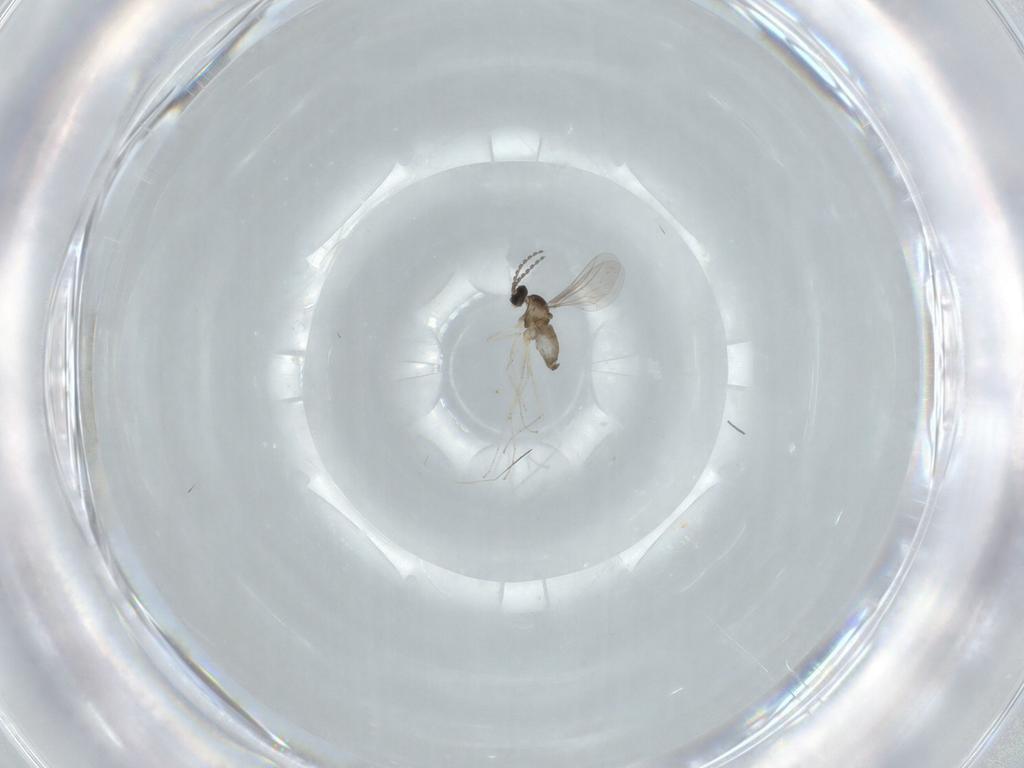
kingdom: Animalia
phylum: Arthropoda
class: Insecta
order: Diptera
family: Cecidomyiidae
